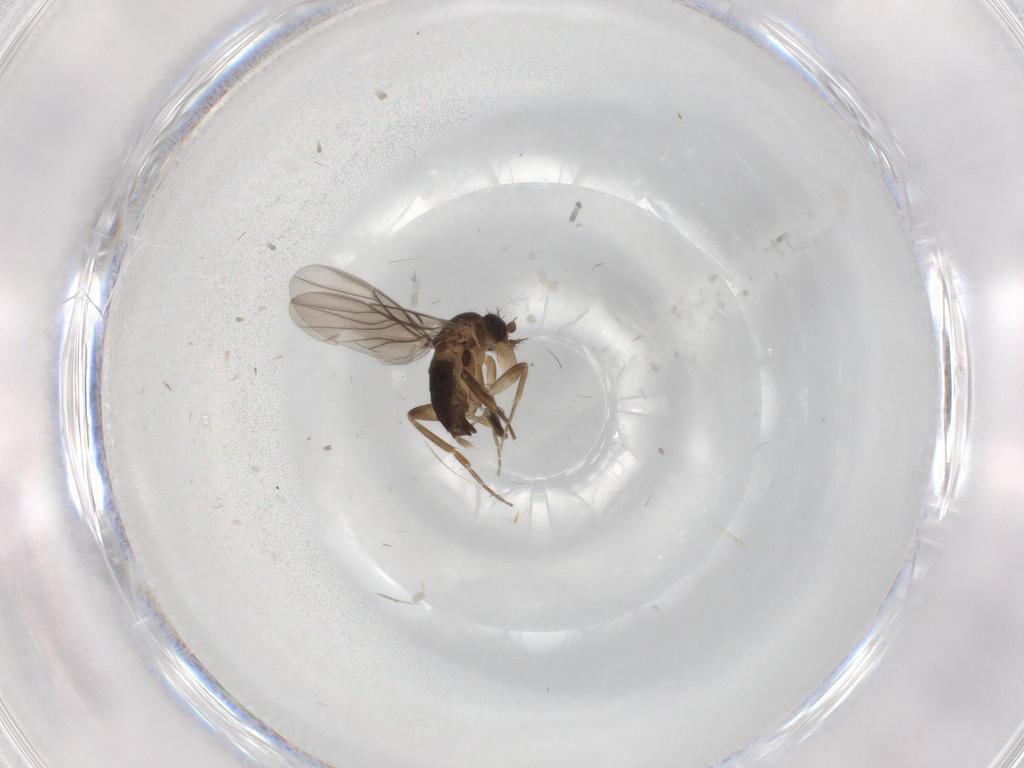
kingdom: Animalia
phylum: Arthropoda
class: Insecta
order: Diptera
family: Phoridae
